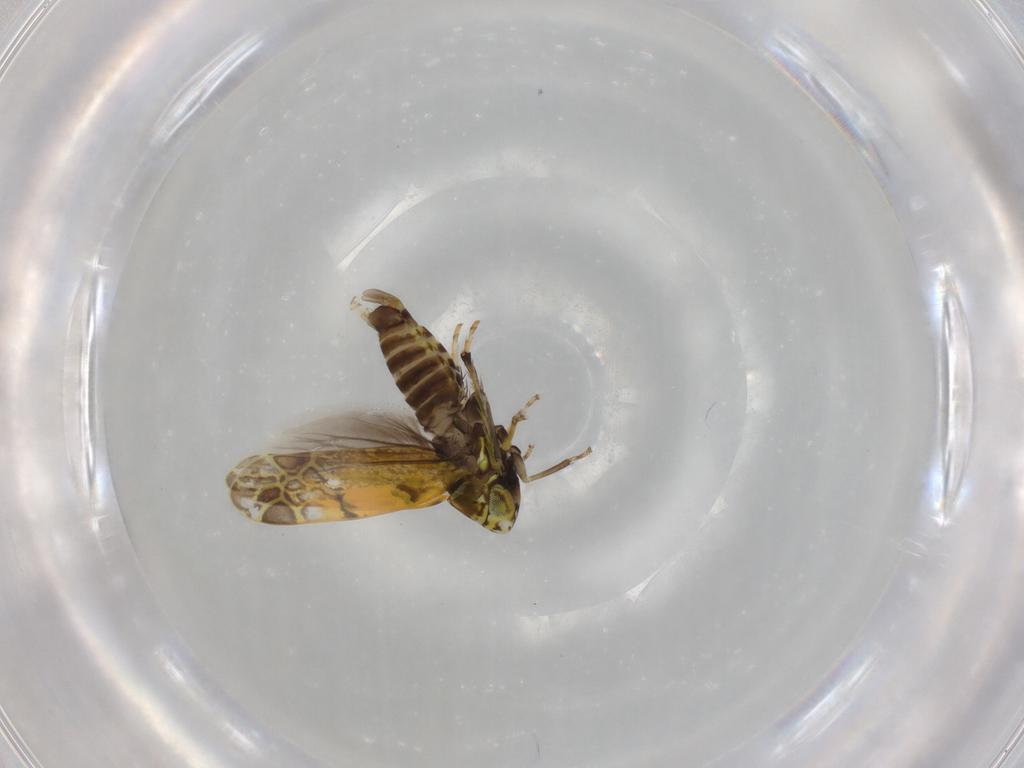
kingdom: Animalia
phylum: Arthropoda
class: Insecta
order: Hemiptera
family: Cicadellidae
